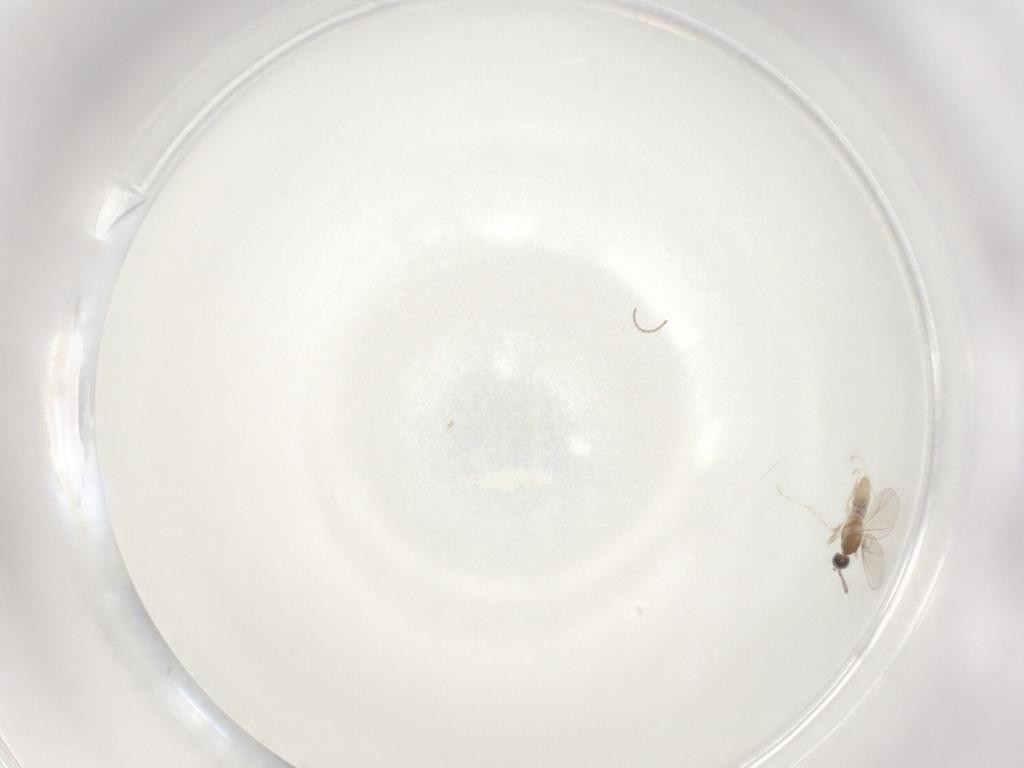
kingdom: Animalia
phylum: Arthropoda
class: Insecta
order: Diptera
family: Cecidomyiidae
